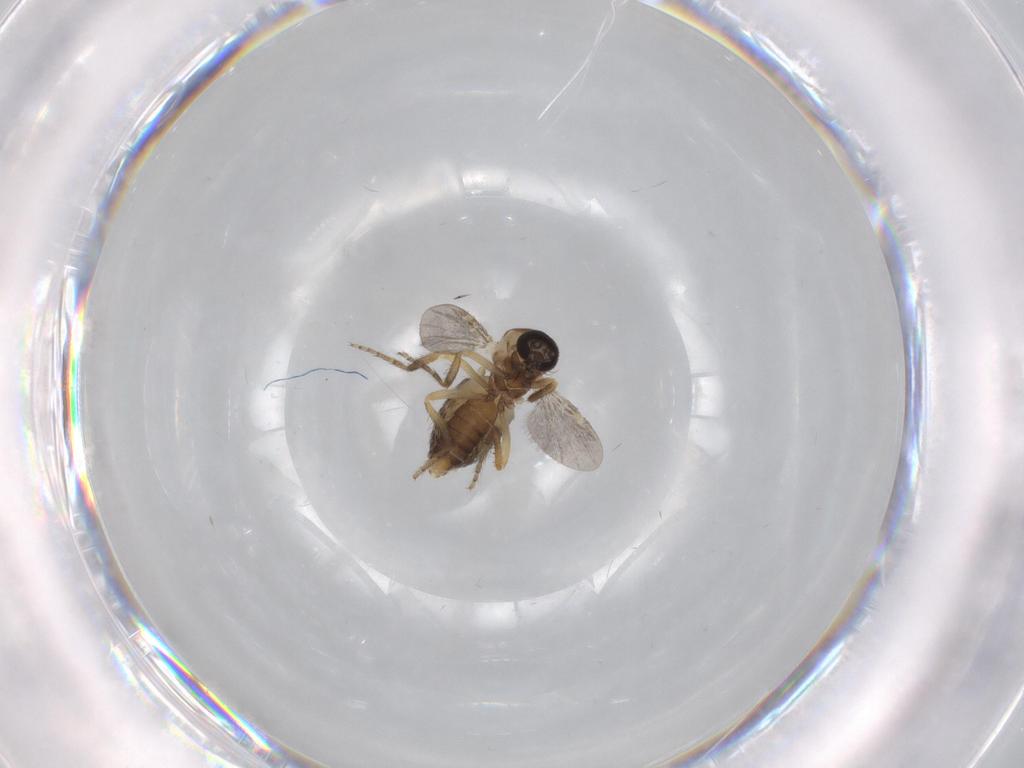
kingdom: Animalia
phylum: Arthropoda
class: Insecta
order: Diptera
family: Ceratopogonidae
